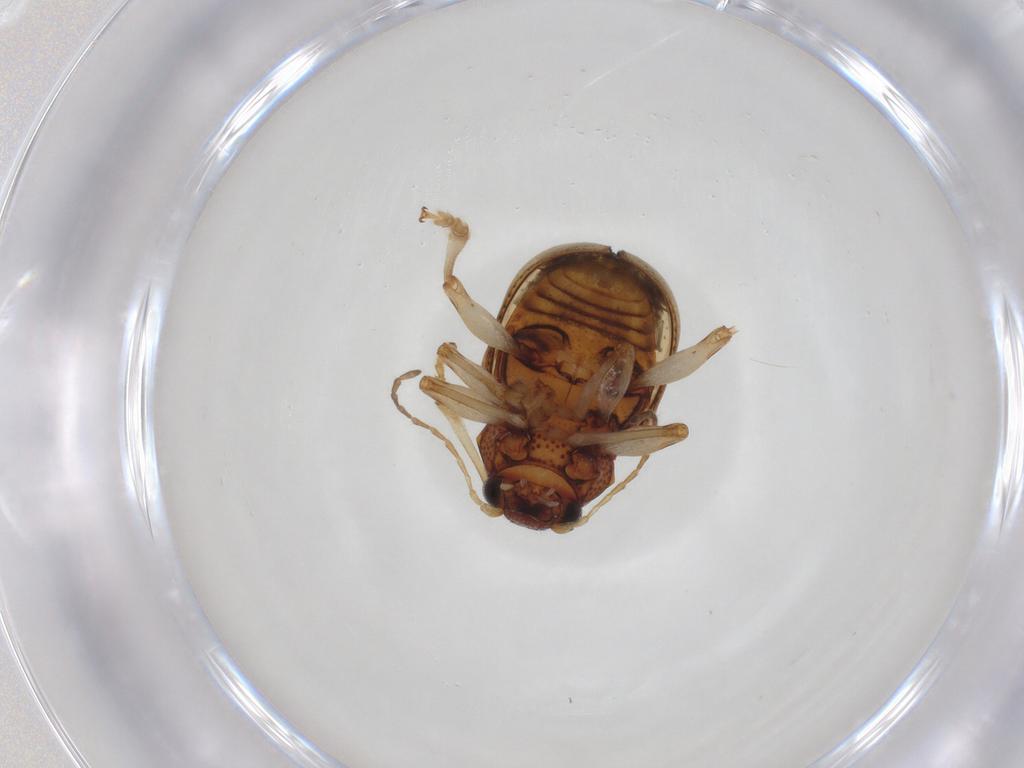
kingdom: Animalia
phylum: Arthropoda
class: Insecta
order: Coleoptera
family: Chrysomelidae
